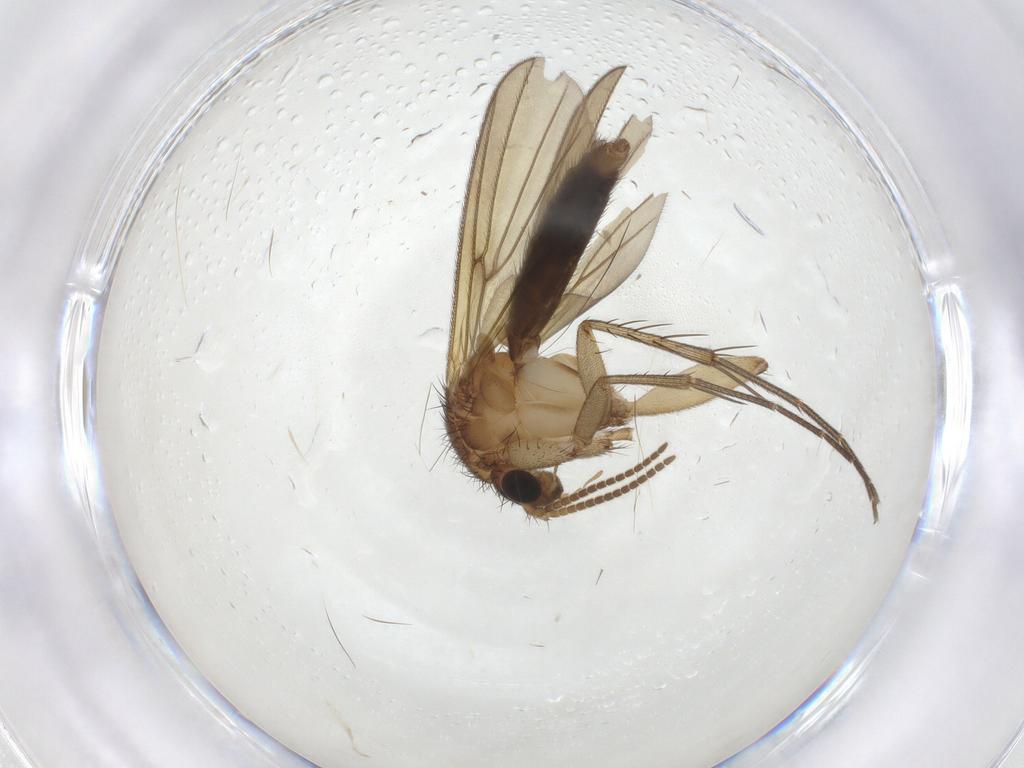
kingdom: Animalia
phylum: Arthropoda
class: Insecta
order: Diptera
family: Mycetophilidae
